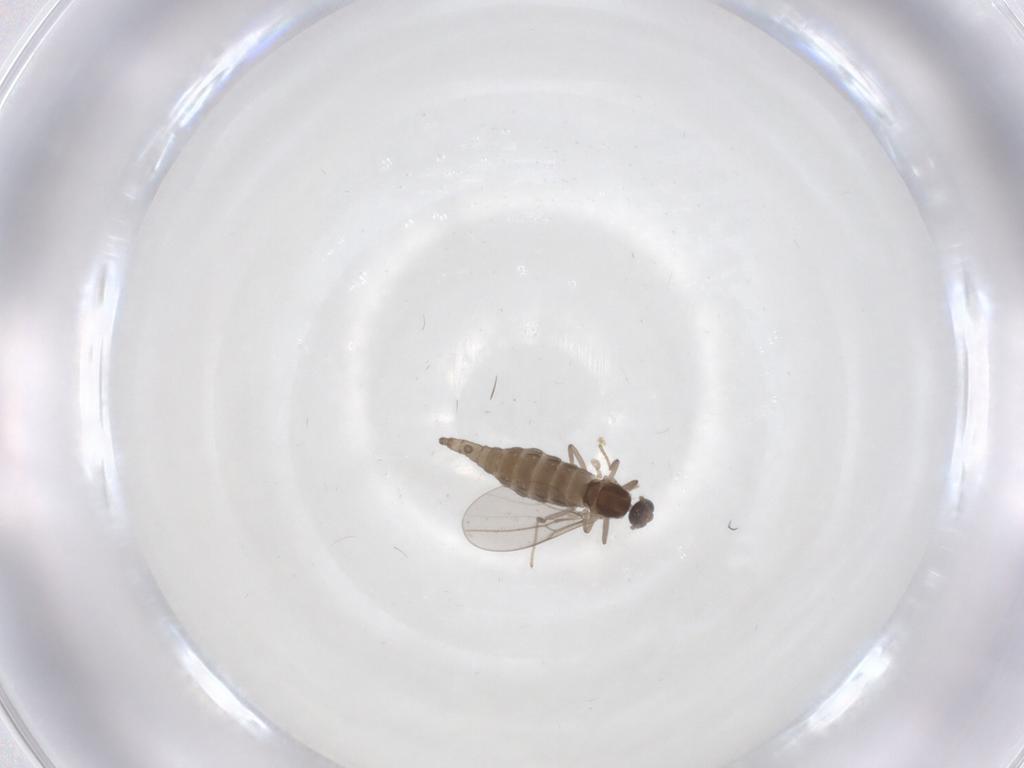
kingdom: Animalia
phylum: Arthropoda
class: Insecta
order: Diptera
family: Cecidomyiidae
